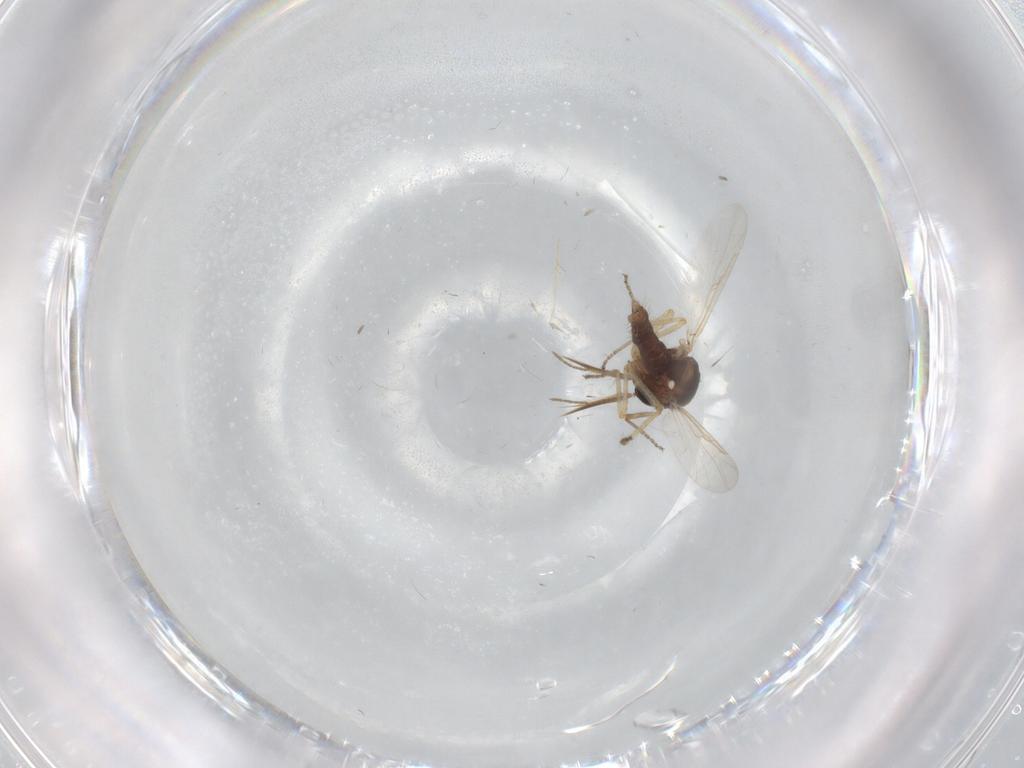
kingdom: Animalia
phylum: Arthropoda
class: Insecta
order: Diptera
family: Ceratopogonidae
